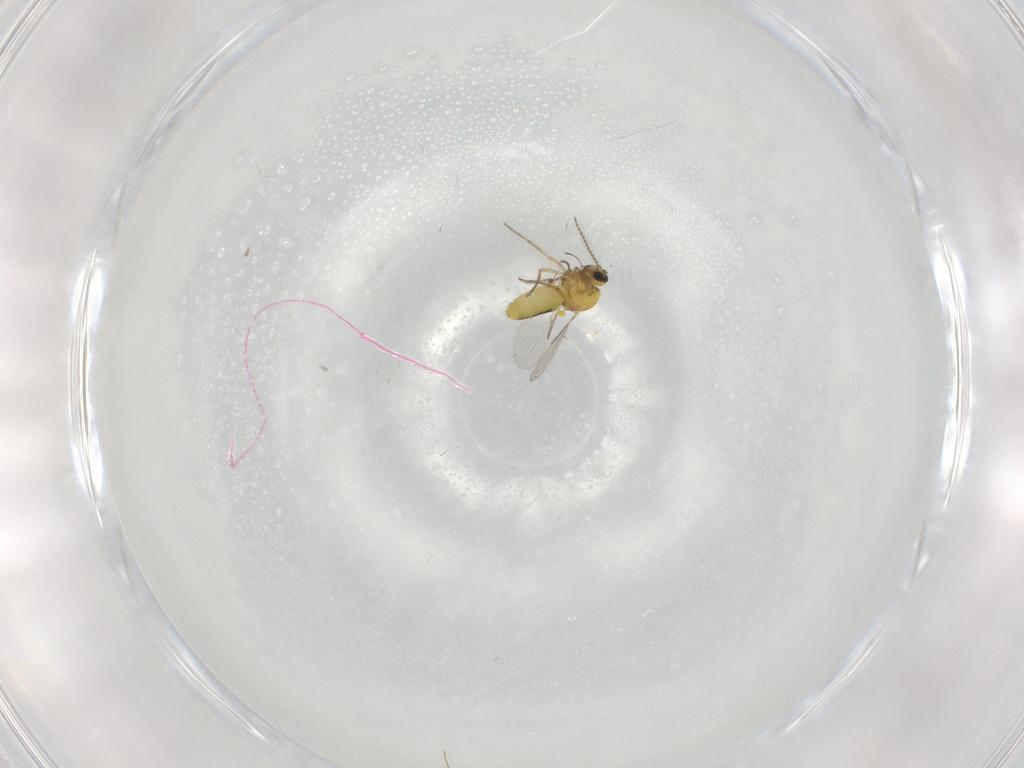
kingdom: Animalia
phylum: Arthropoda
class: Insecta
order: Diptera
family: Ceratopogonidae
